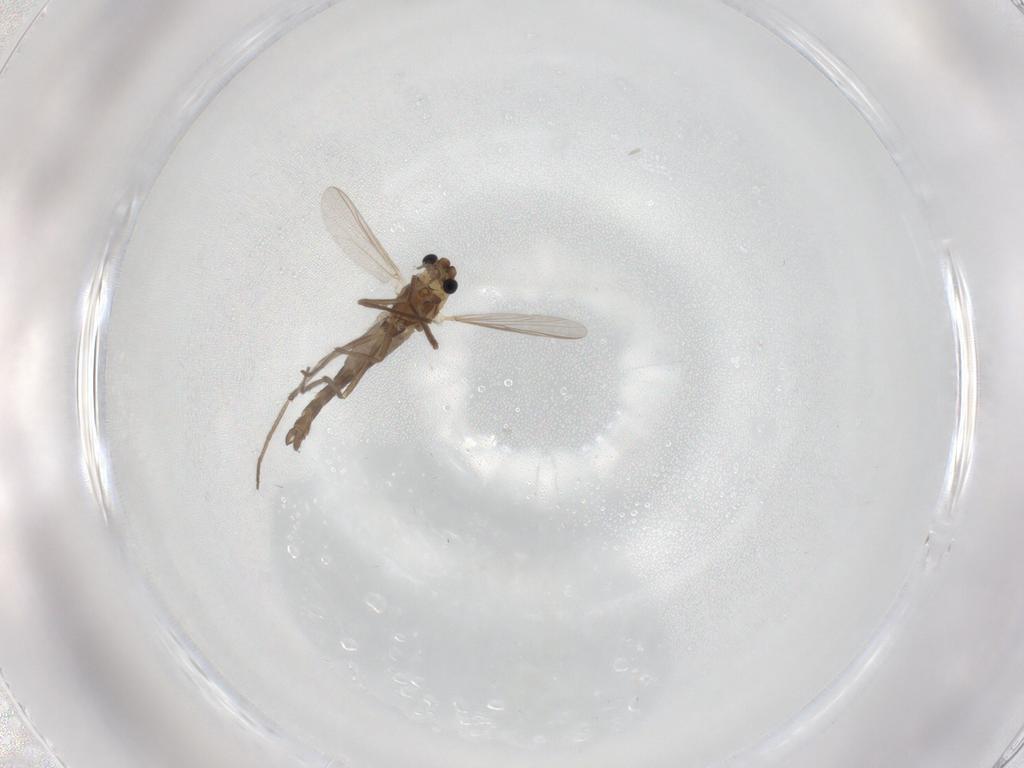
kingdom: Animalia
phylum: Arthropoda
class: Insecta
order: Diptera
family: Chironomidae
